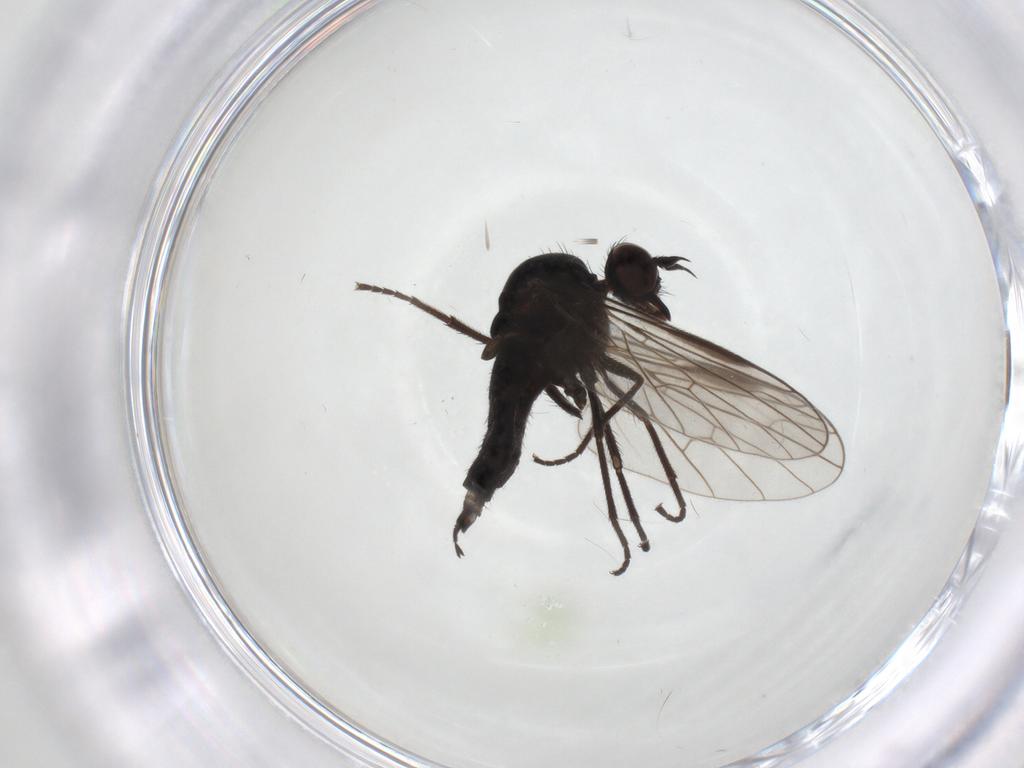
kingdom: Animalia
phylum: Arthropoda
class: Insecta
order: Diptera
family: Empididae
